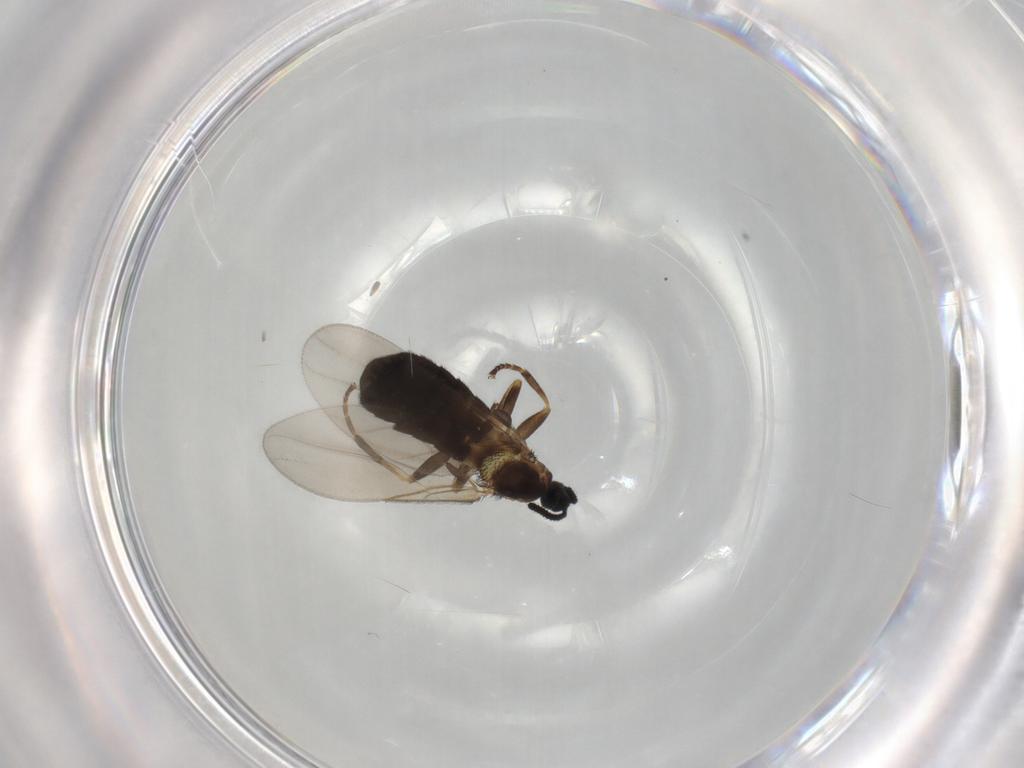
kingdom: Animalia
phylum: Arthropoda
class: Insecta
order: Diptera
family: Scatopsidae
